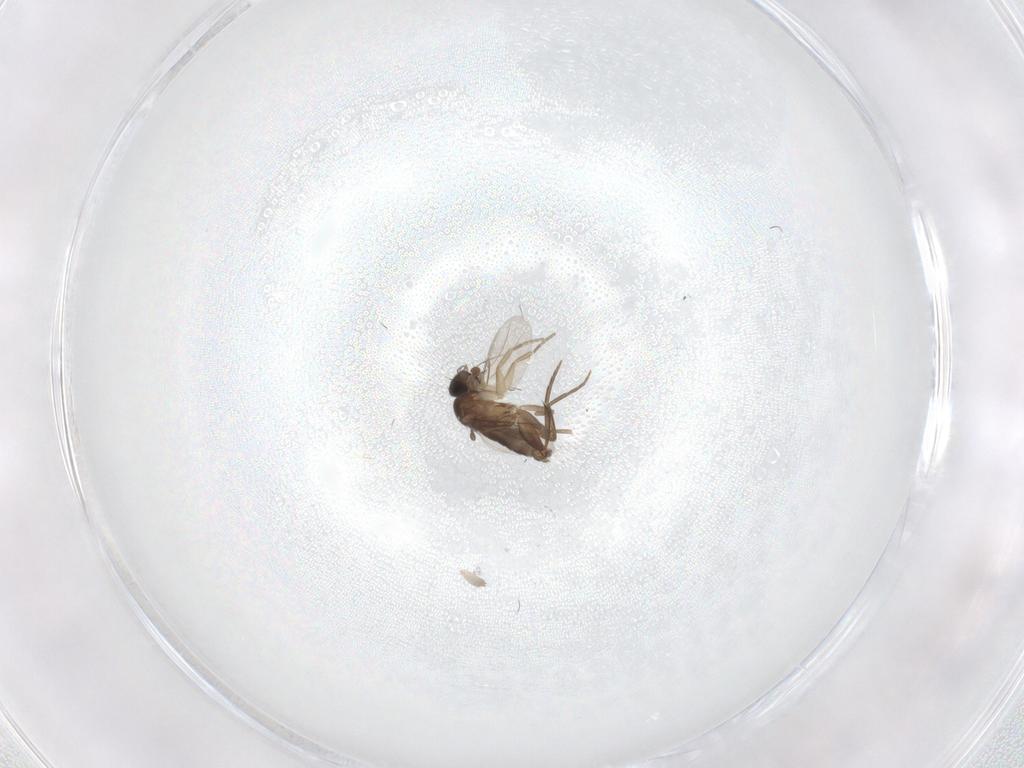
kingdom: Animalia
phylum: Arthropoda
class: Insecta
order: Diptera
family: Phoridae
